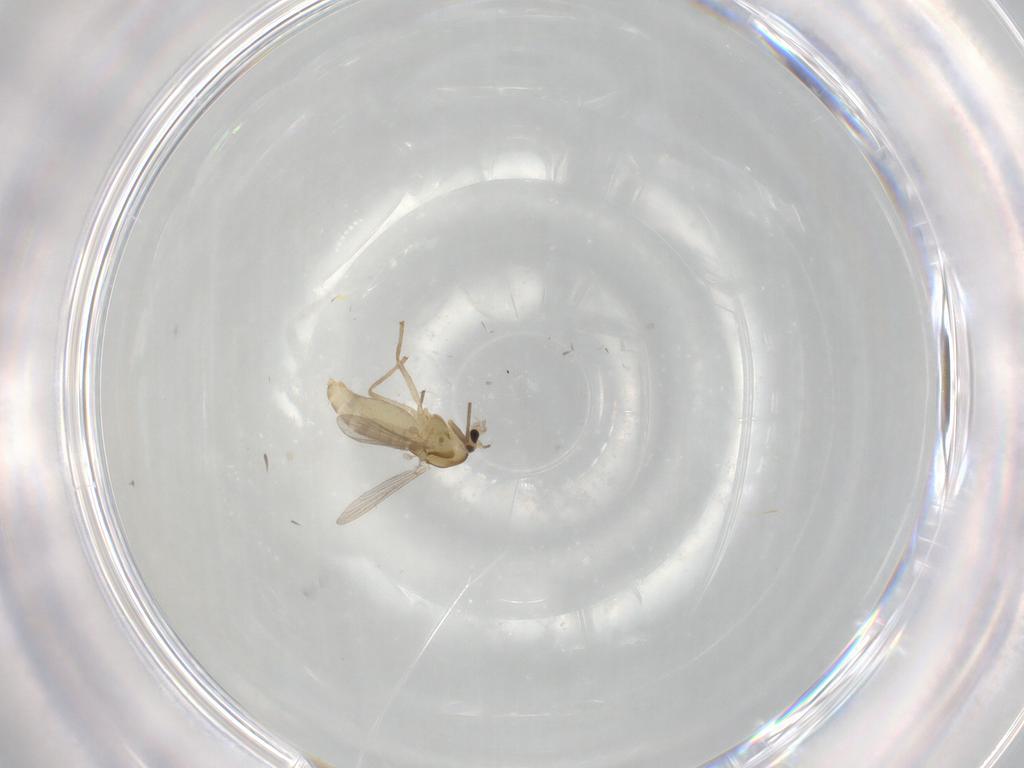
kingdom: Animalia
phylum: Arthropoda
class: Insecta
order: Diptera
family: Chironomidae
